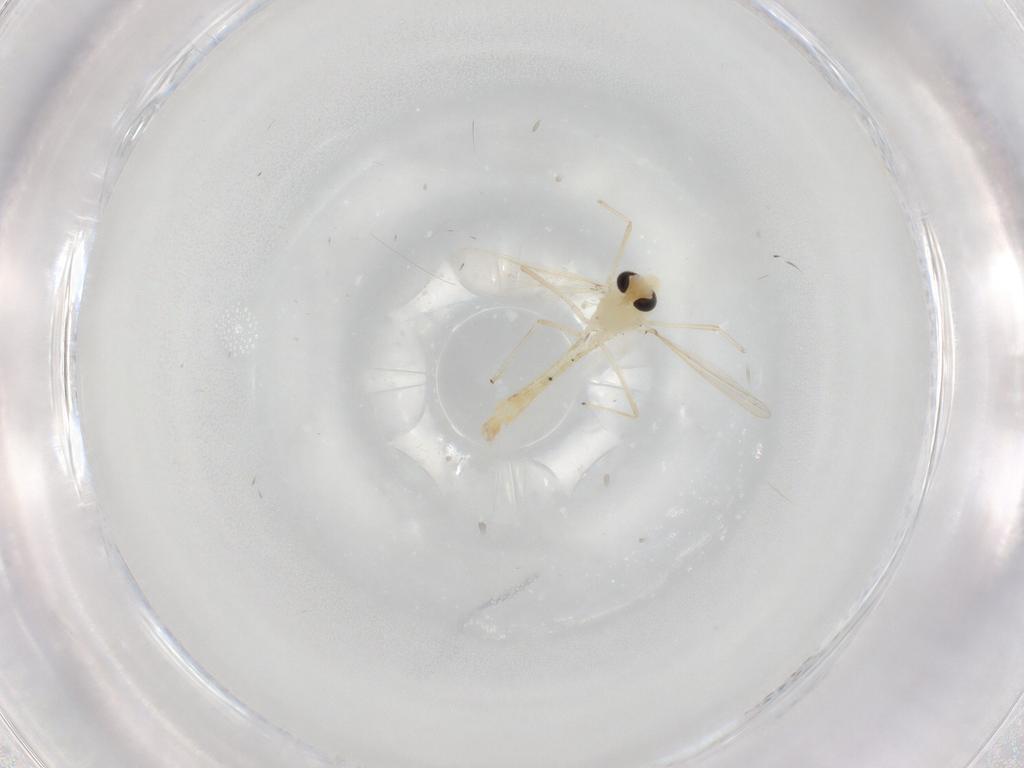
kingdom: Animalia
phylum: Arthropoda
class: Insecta
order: Diptera
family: Chironomidae
